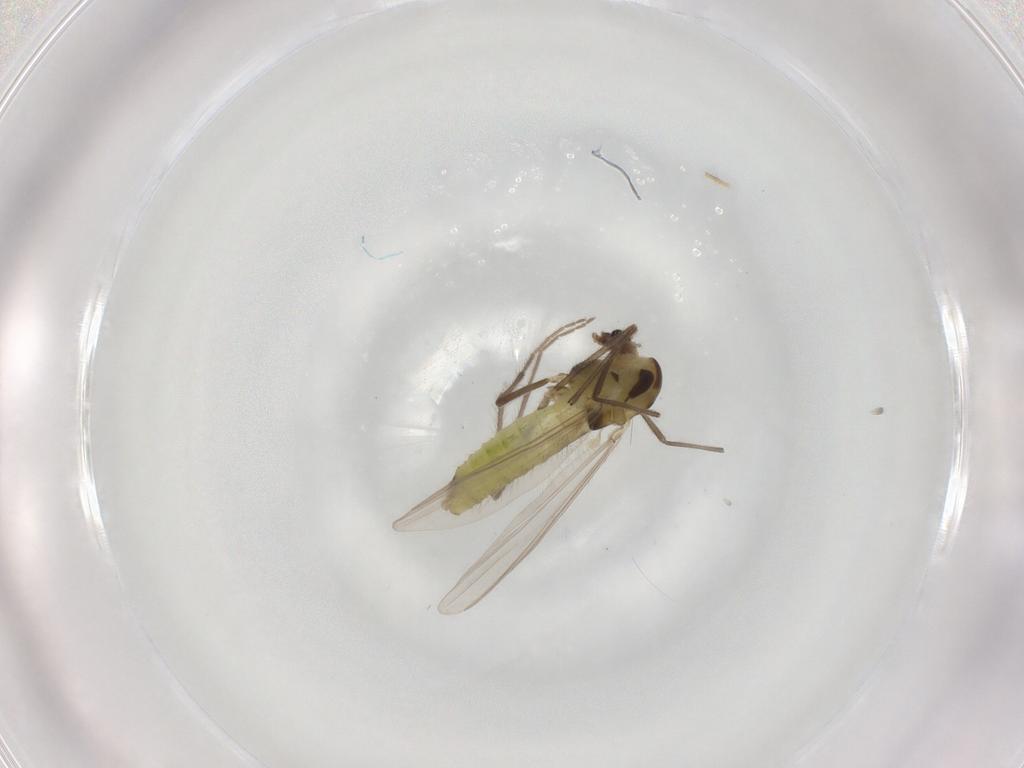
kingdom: Animalia
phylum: Arthropoda
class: Insecta
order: Diptera
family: Chironomidae
